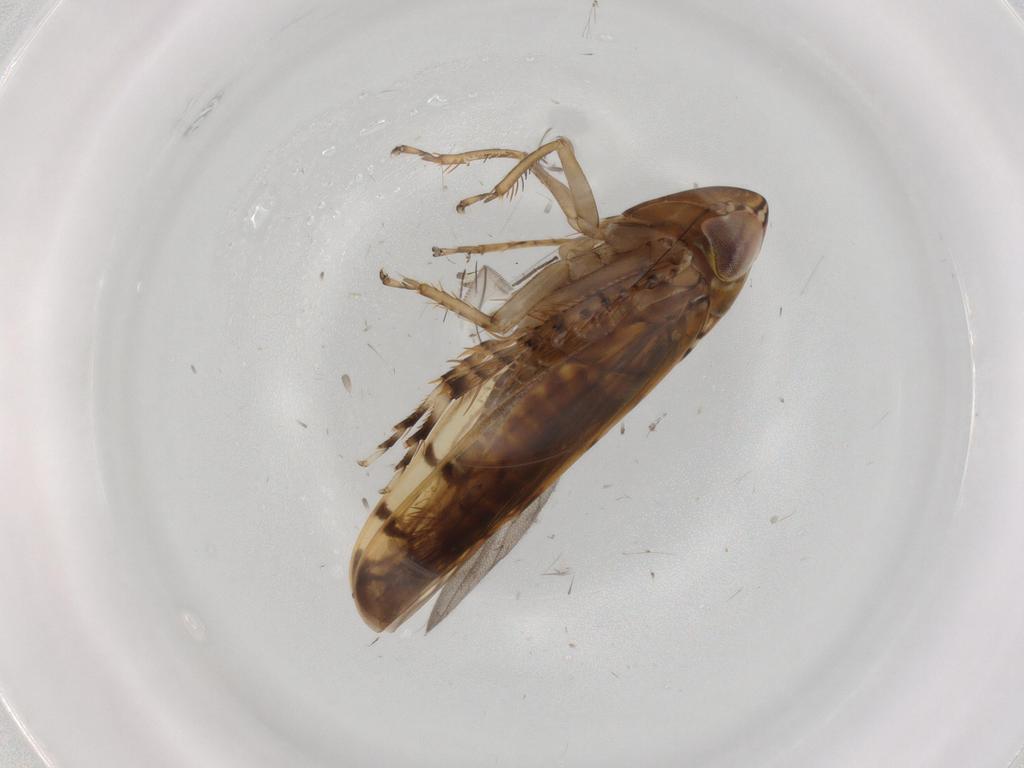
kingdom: Animalia
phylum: Arthropoda
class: Insecta
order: Hemiptera
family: Cicadellidae
